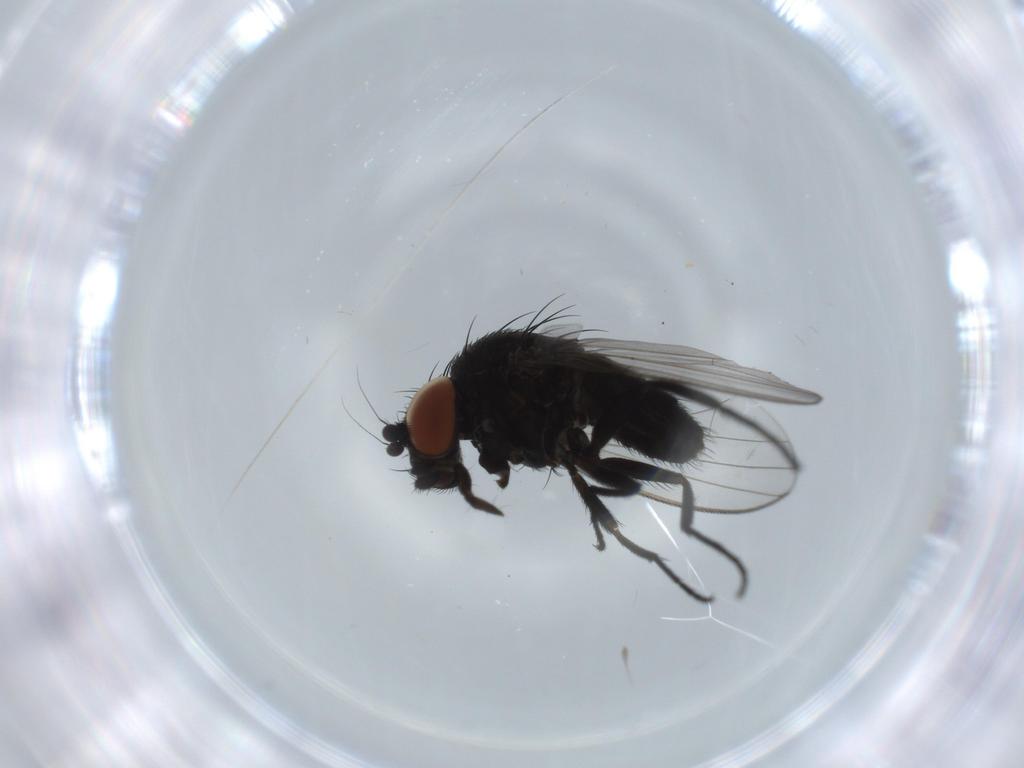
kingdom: Animalia
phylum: Arthropoda
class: Insecta
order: Diptera
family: Milichiidae
